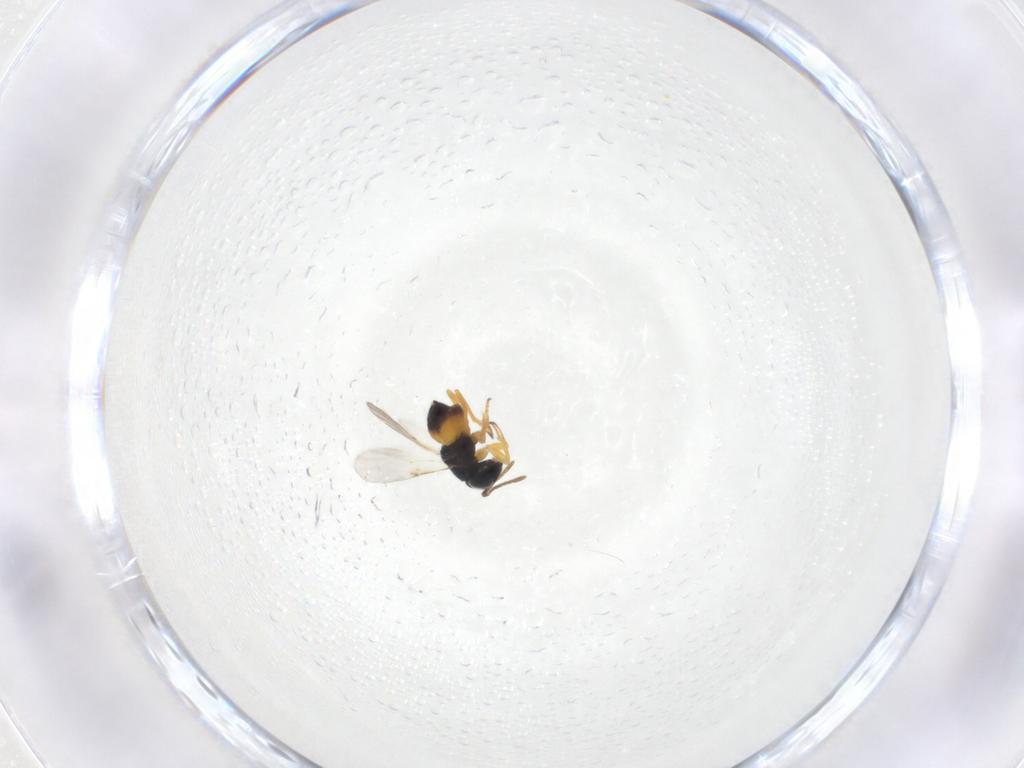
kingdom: Animalia
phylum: Arthropoda
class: Insecta
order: Hymenoptera
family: Encyrtidae
